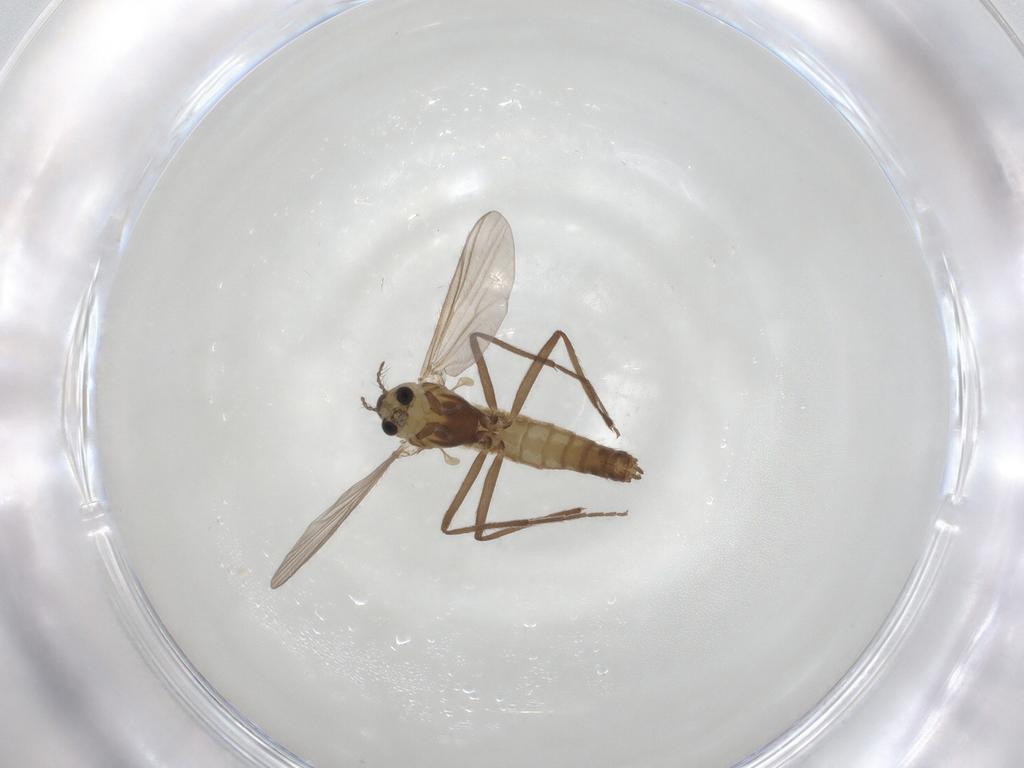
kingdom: Animalia
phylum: Arthropoda
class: Insecta
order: Diptera
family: Chironomidae
